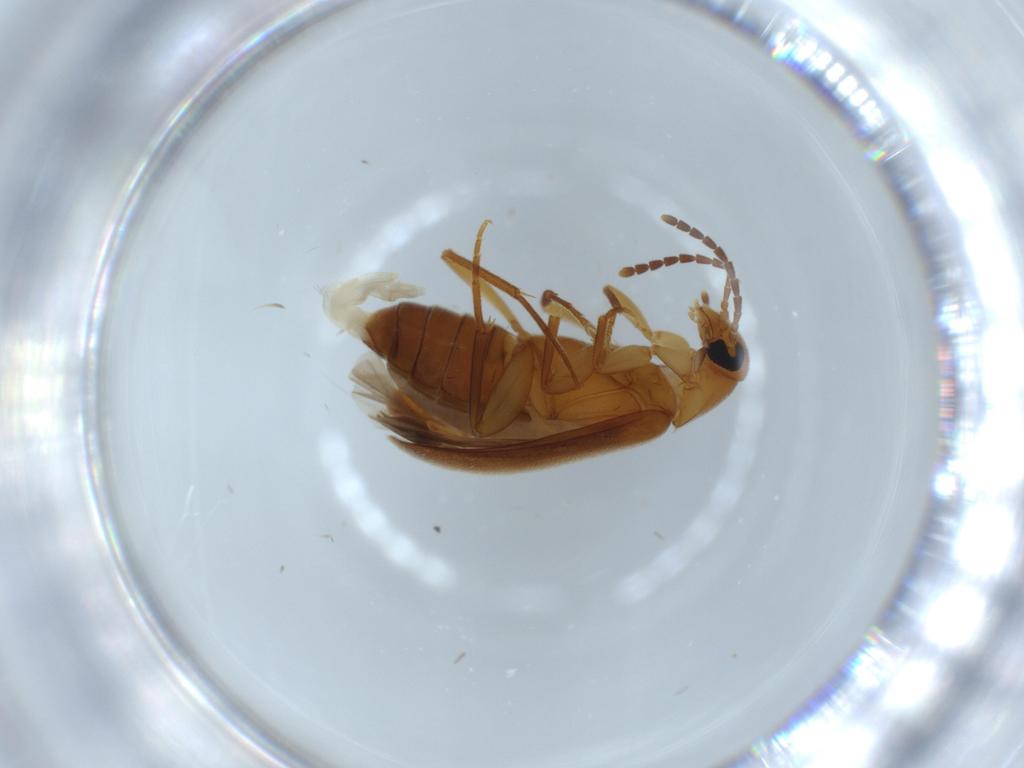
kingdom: Animalia
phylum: Arthropoda
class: Insecta
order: Coleoptera
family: Scraptiidae
